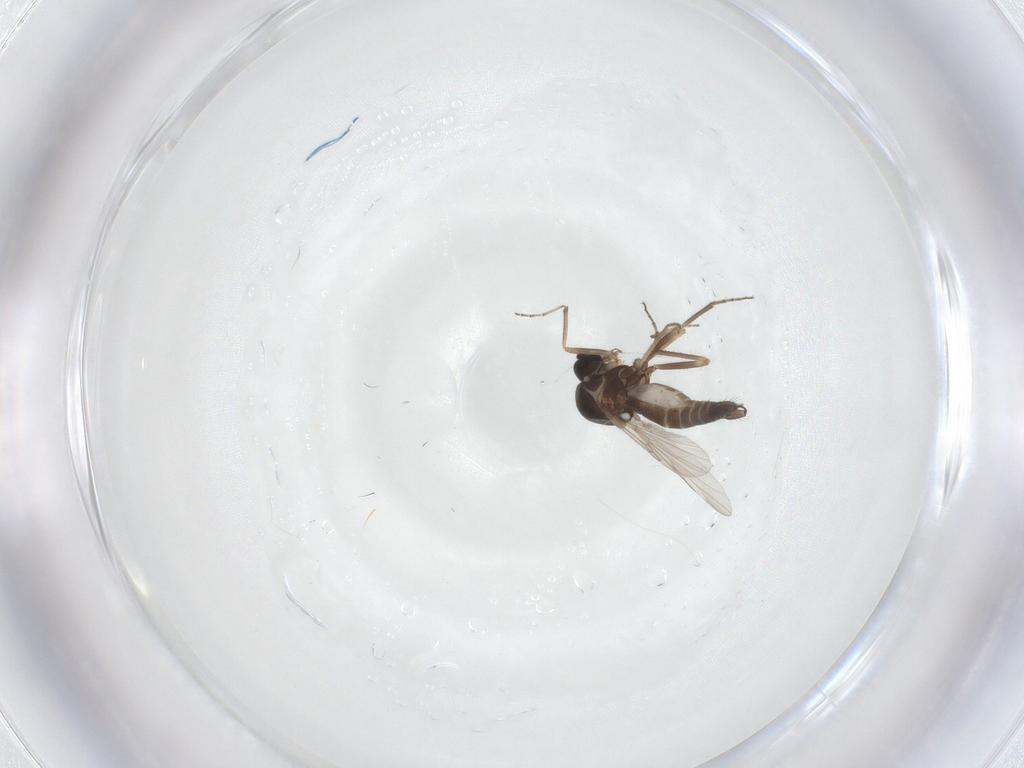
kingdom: Animalia
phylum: Arthropoda
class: Insecta
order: Diptera
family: Ceratopogonidae
